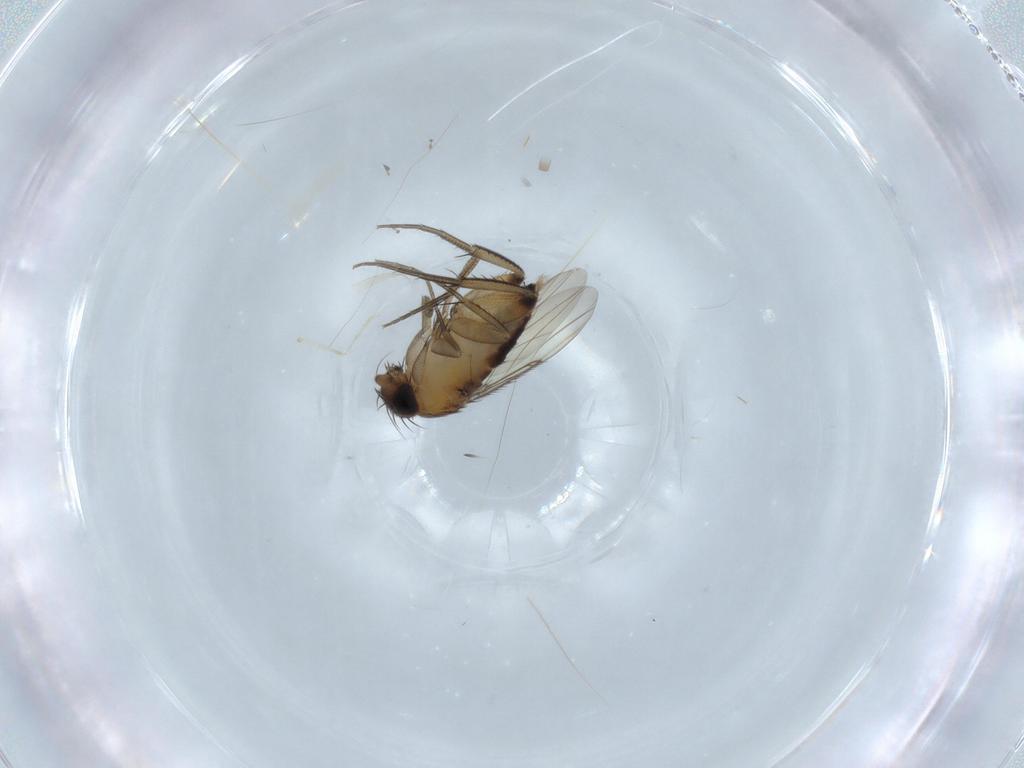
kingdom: Animalia
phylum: Arthropoda
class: Insecta
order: Diptera
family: Phoridae
